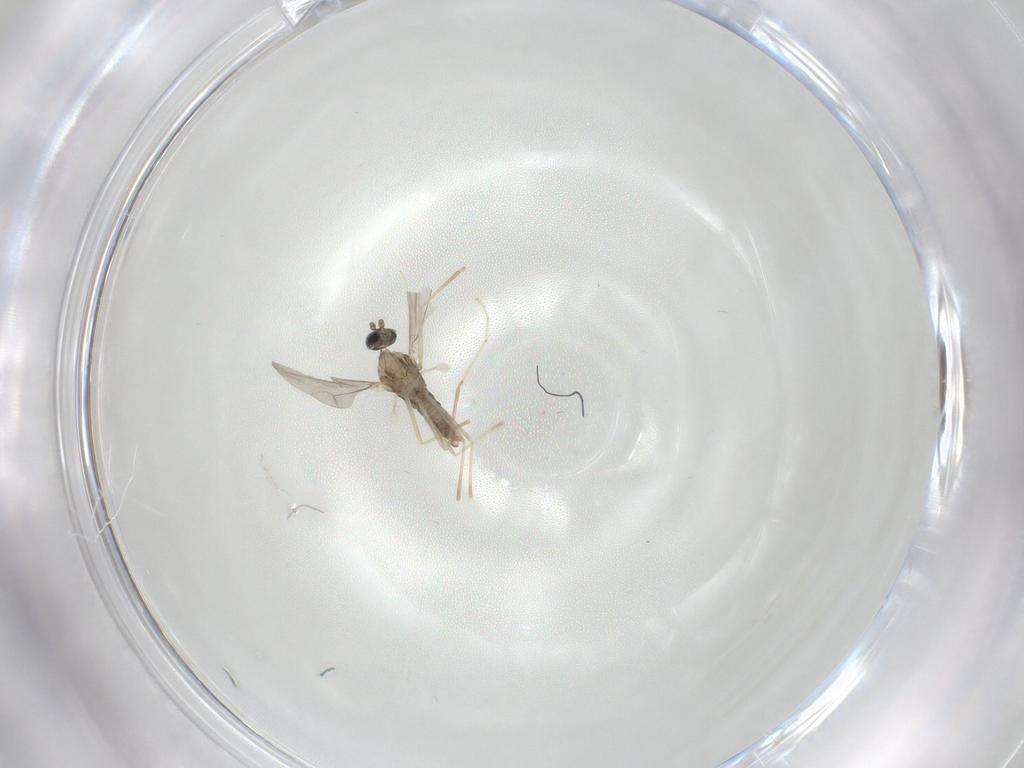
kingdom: Animalia
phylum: Arthropoda
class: Insecta
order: Diptera
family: Cecidomyiidae
